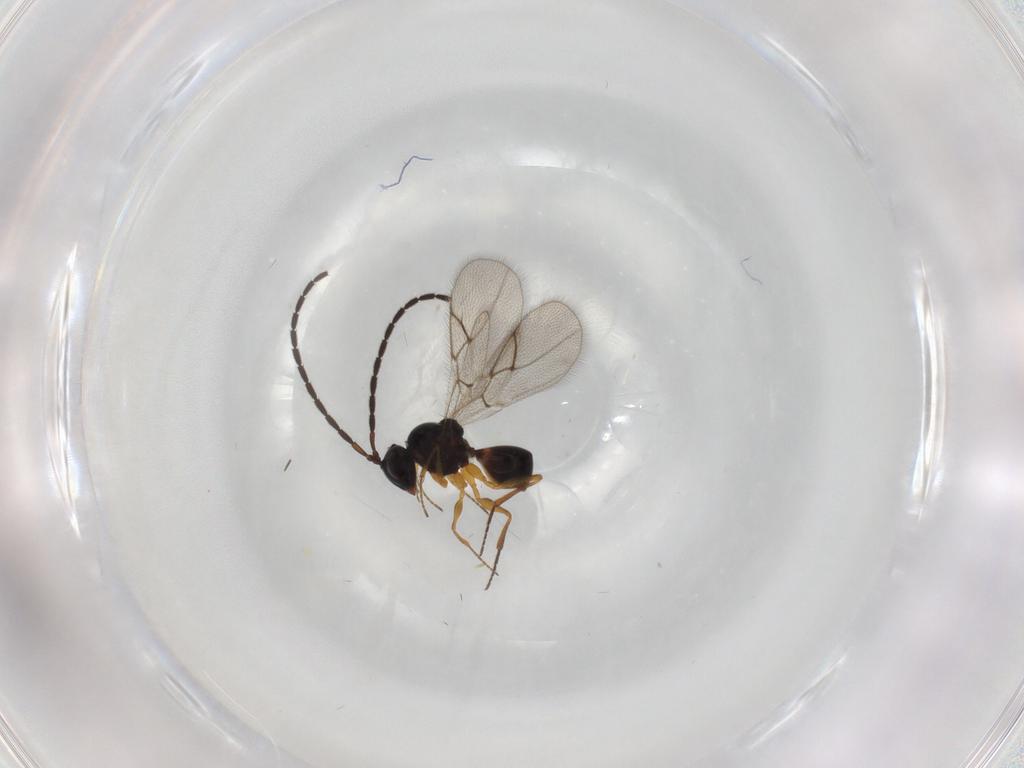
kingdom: Animalia
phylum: Arthropoda
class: Insecta
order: Hymenoptera
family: Figitidae
